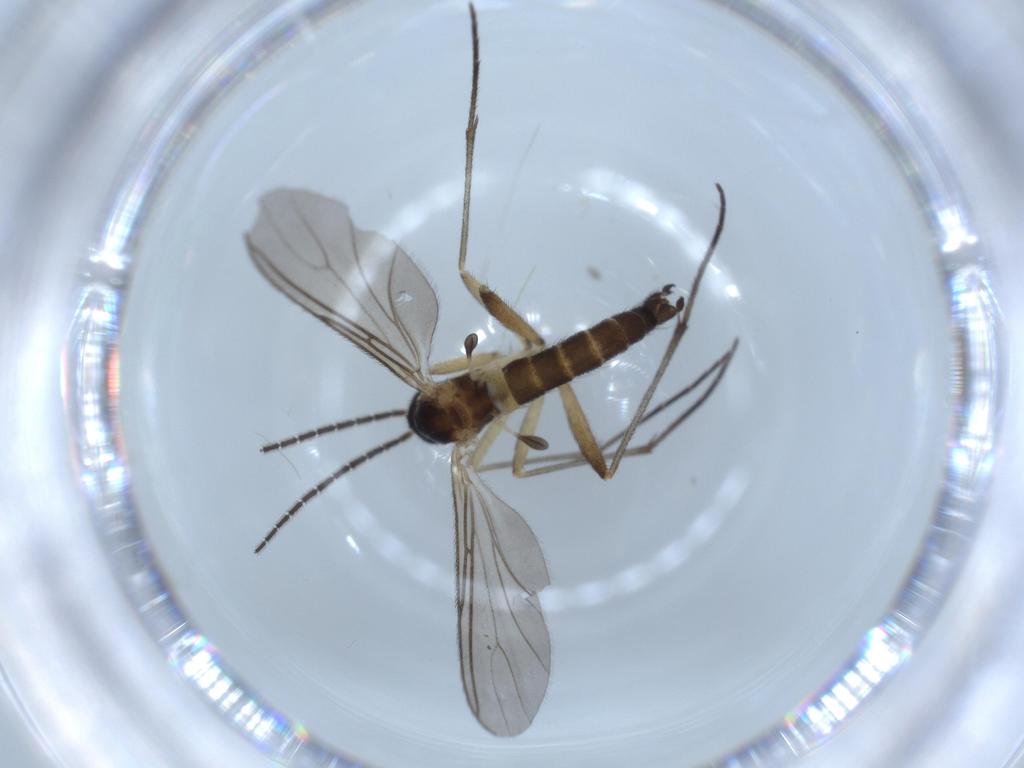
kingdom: Animalia
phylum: Arthropoda
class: Insecta
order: Diptera
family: Sciaridae
